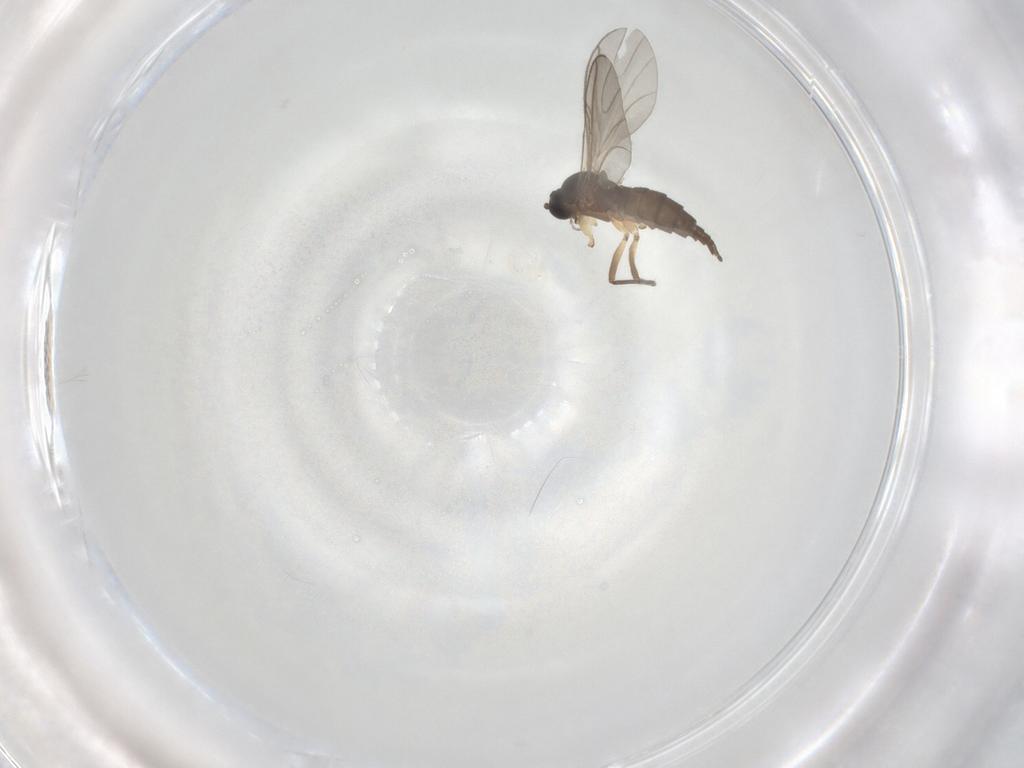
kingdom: Animalia
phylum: Arthropoda
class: Insecta
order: Diptera
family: Sciaridae
